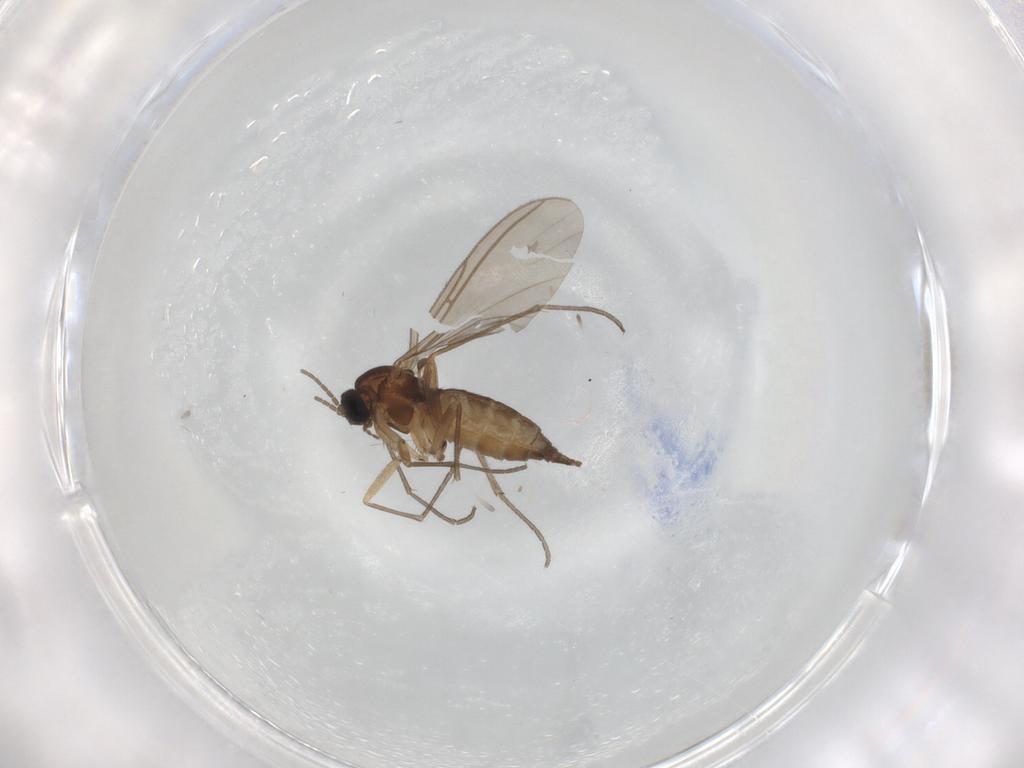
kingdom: Animalia
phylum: Arthropoda
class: Insecta
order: Diptera
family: Sciaridae
